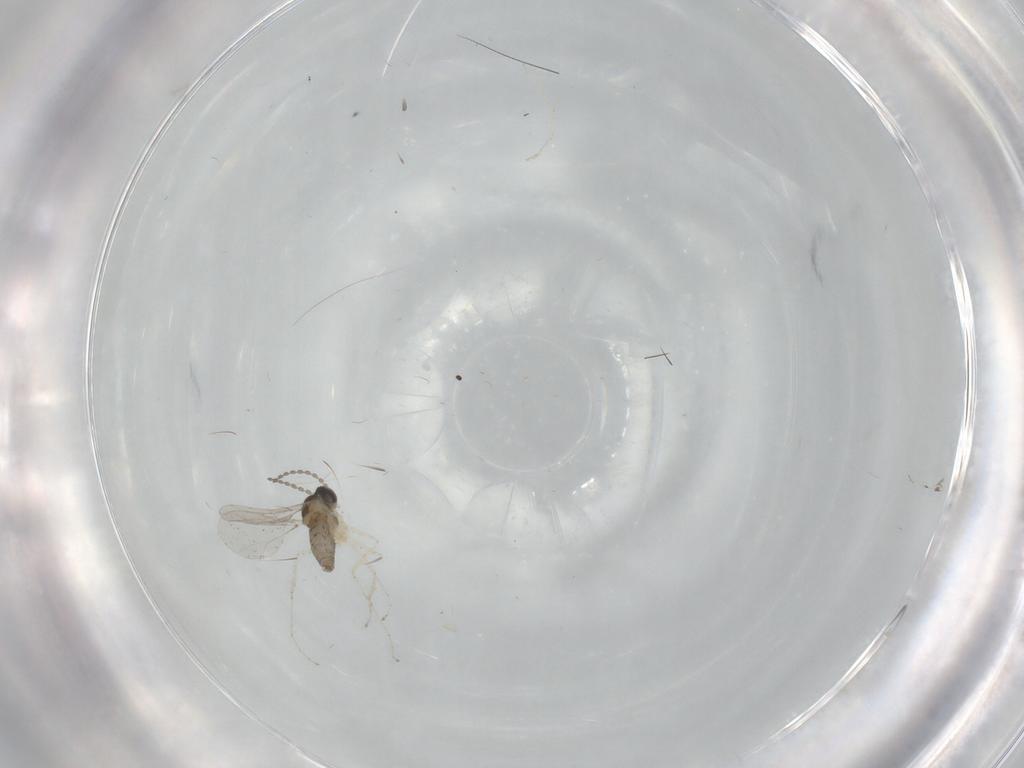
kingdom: Animalia
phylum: Arthropoda
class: Insecta
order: Diptera
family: Cecidomyiidae
